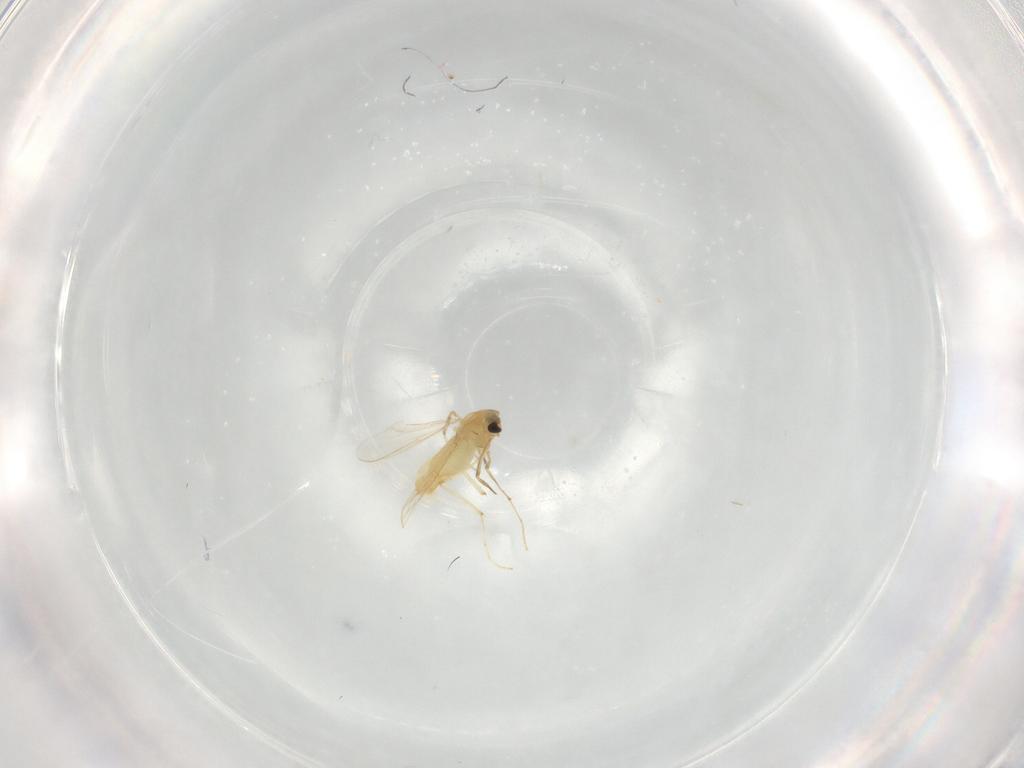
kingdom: Animalia
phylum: Arthropoda
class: Insecta
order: Diptera
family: Chironomidae
